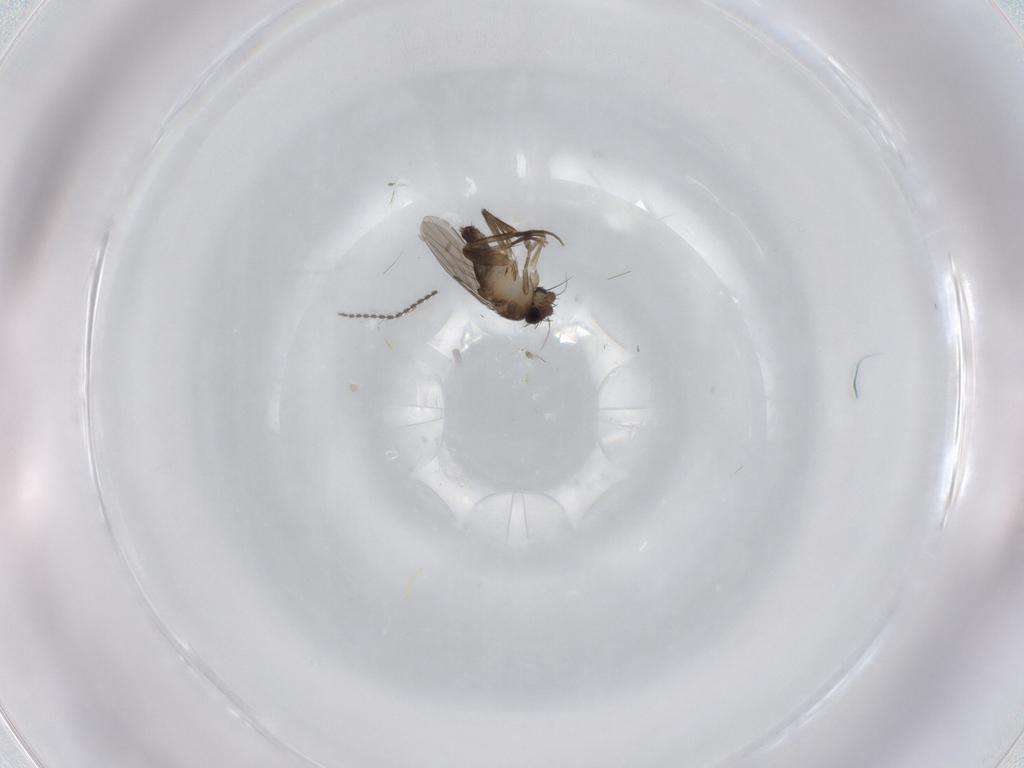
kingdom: Animalia
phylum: Arthropoda
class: Insecta
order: Diptera
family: Phoridae
